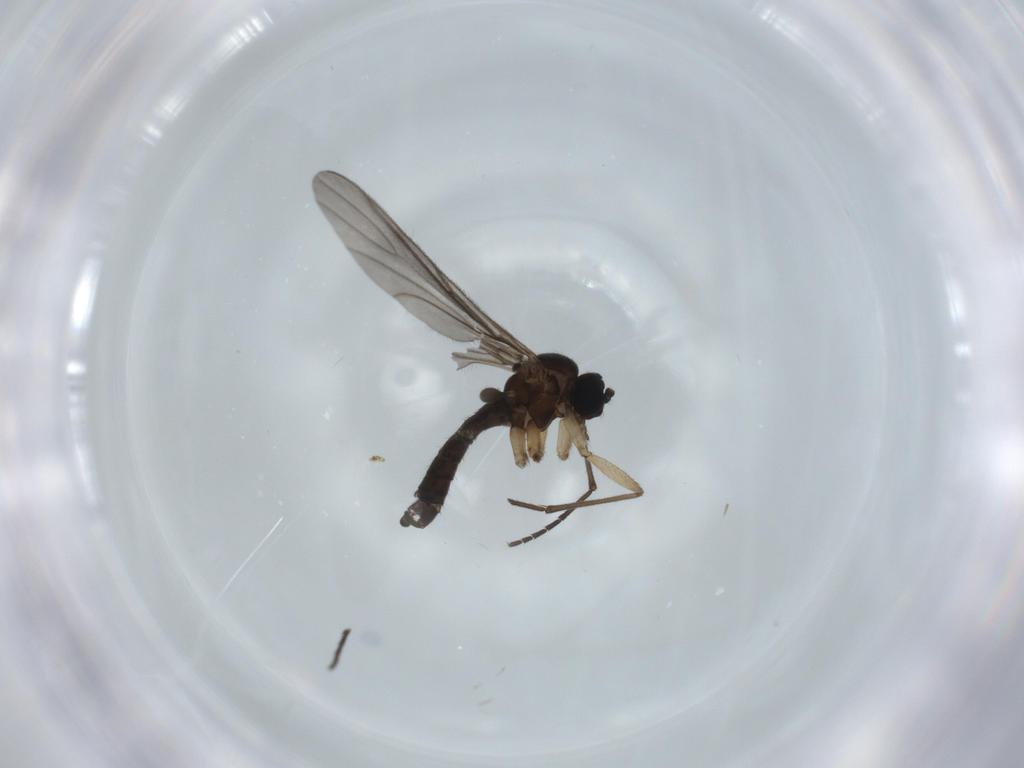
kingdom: Animalia
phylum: Arthropoda
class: Insecta
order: Diptera
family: Sciaridae
